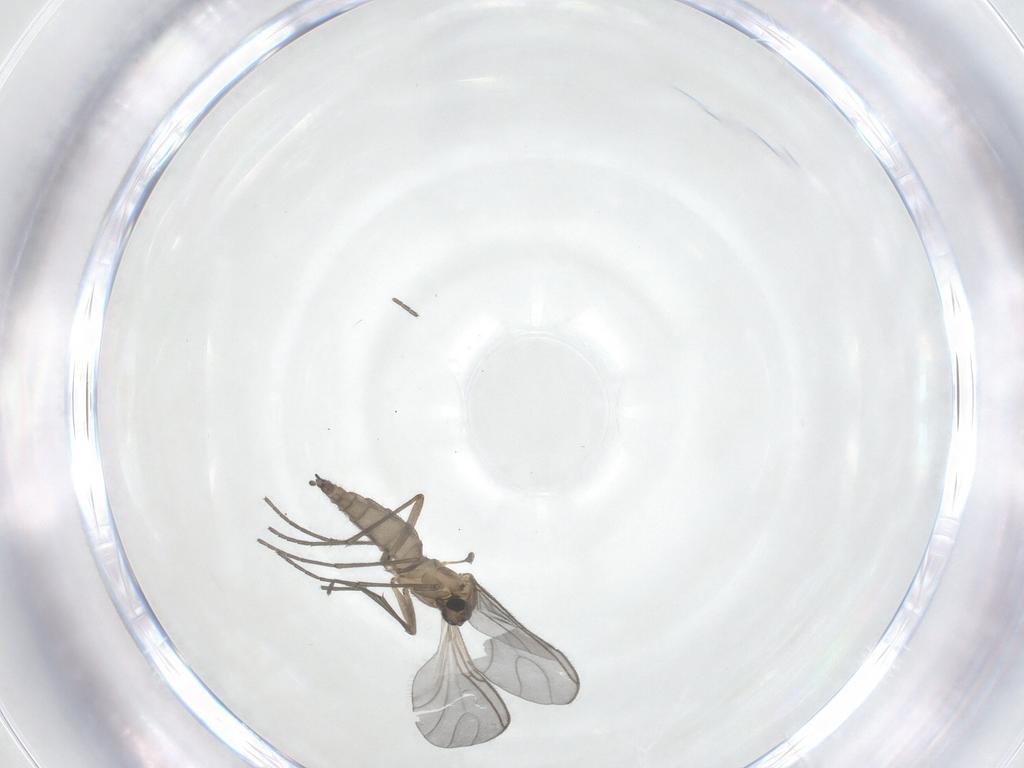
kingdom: Animalia
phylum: Arthropoda
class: Insecta
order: Diptera
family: Sciaridae
